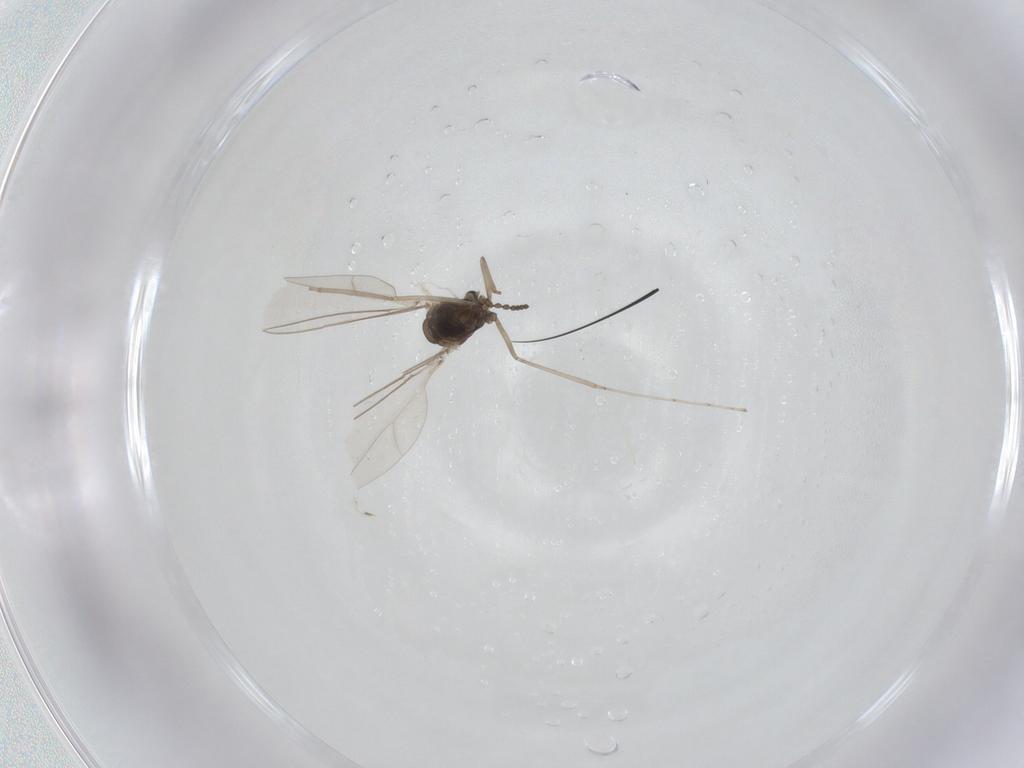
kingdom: Animalia
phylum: Arthropoda
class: Insecta
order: Diptera
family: Cecidomyiidae
